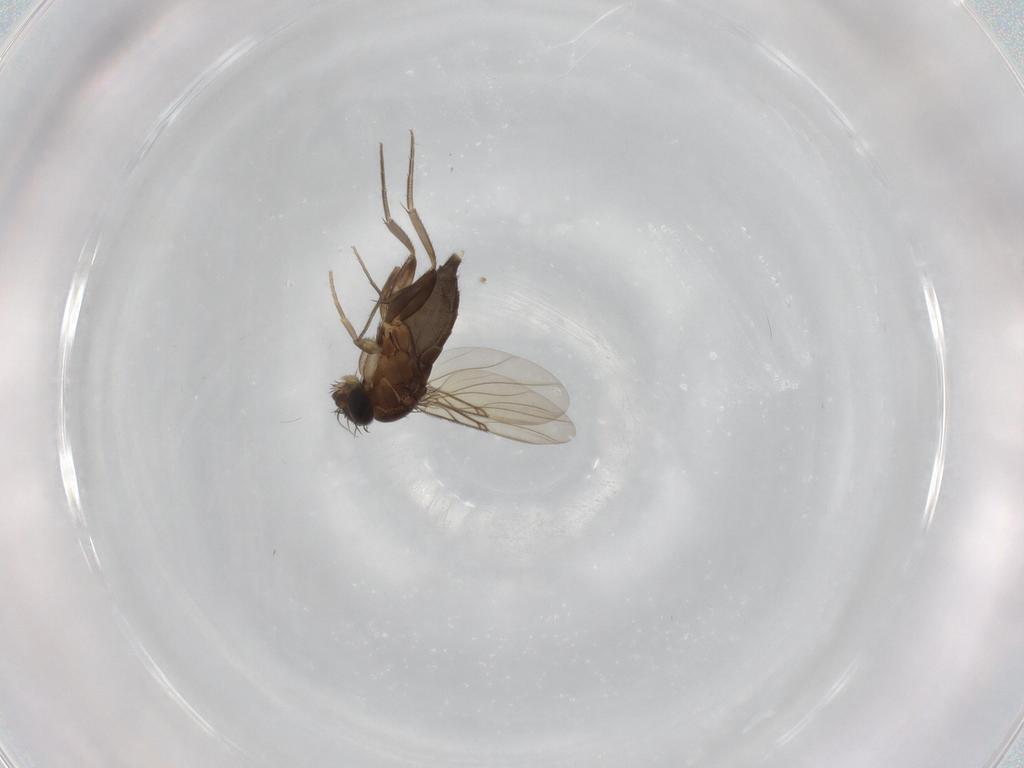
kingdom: Animalia
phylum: Arthropoda
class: Insecta
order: Diptera
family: Phoridae
